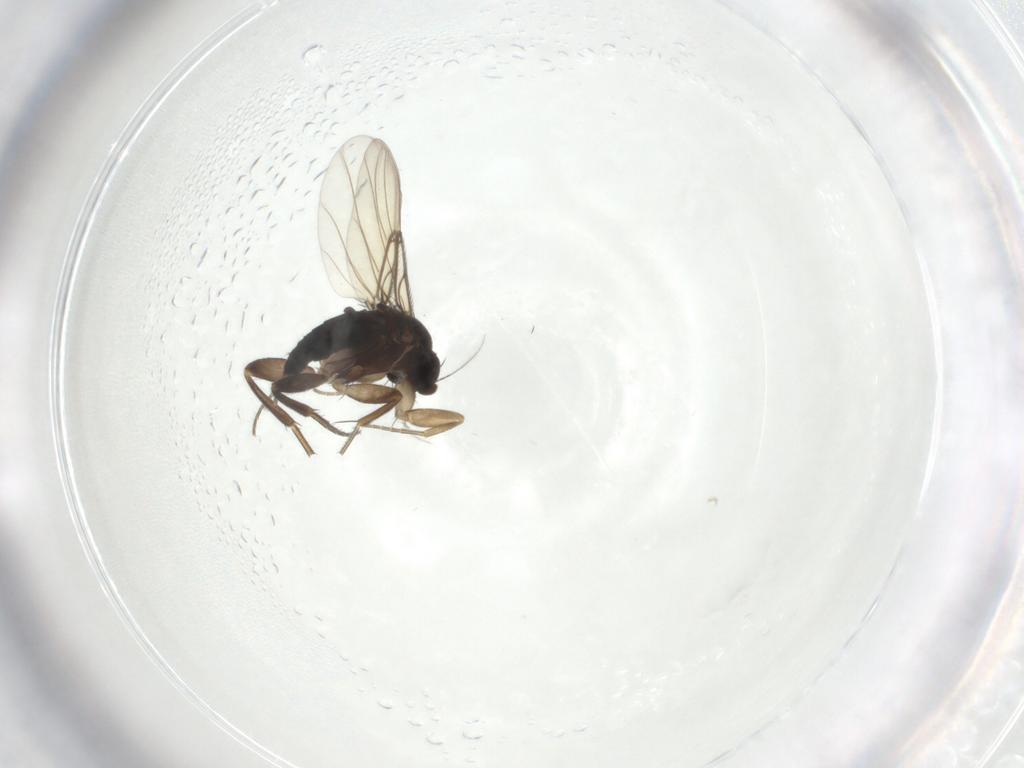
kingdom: Animalia
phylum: Arthropoda
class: Insecta
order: Diptera
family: Phoridae
